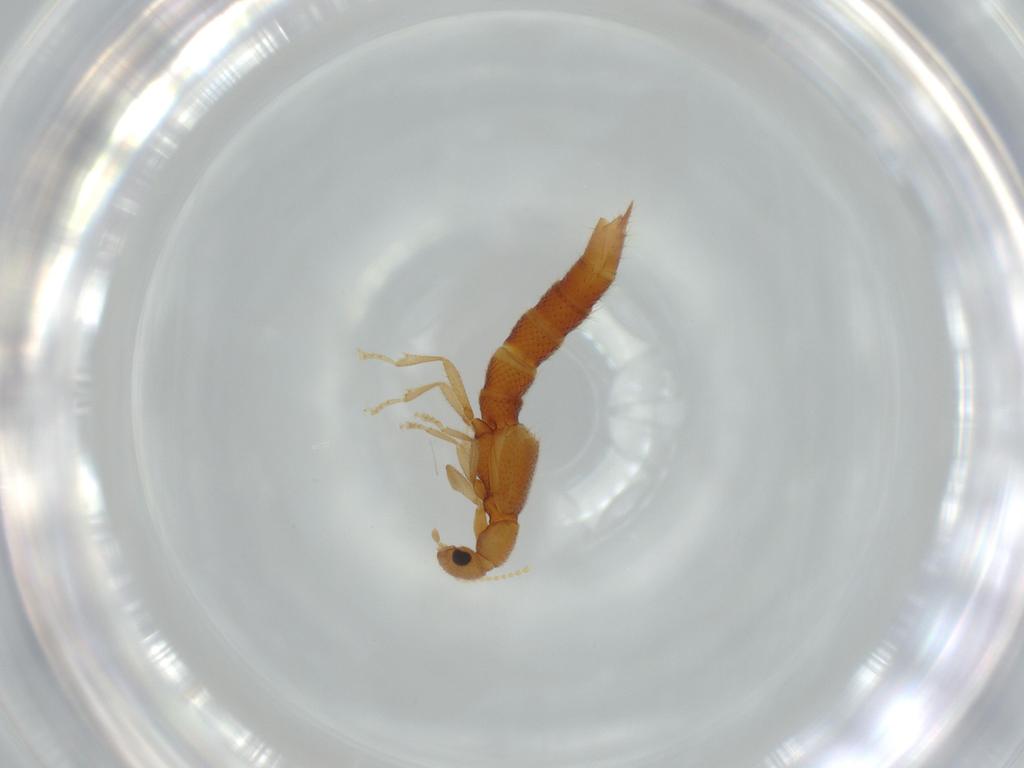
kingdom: Animalia
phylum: Arthropoda
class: Insecta
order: Coleoptera
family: Staphylinidae
